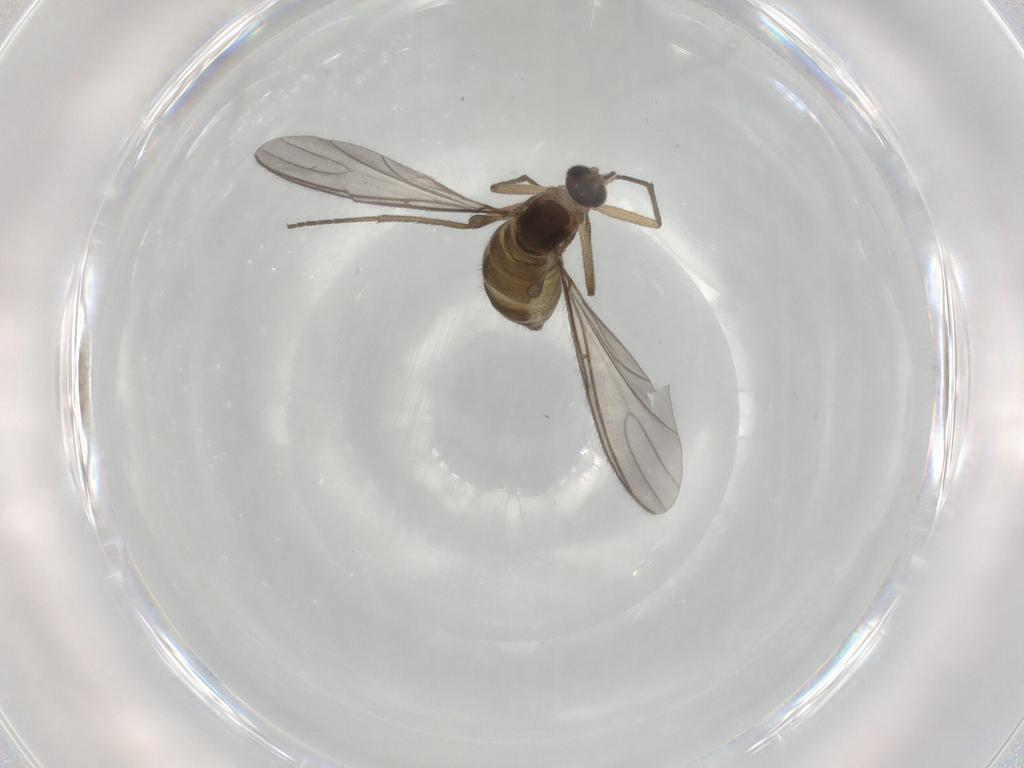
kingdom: Animalia
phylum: Arthropoda
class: Insecta
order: Diptera
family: Sciaridae
